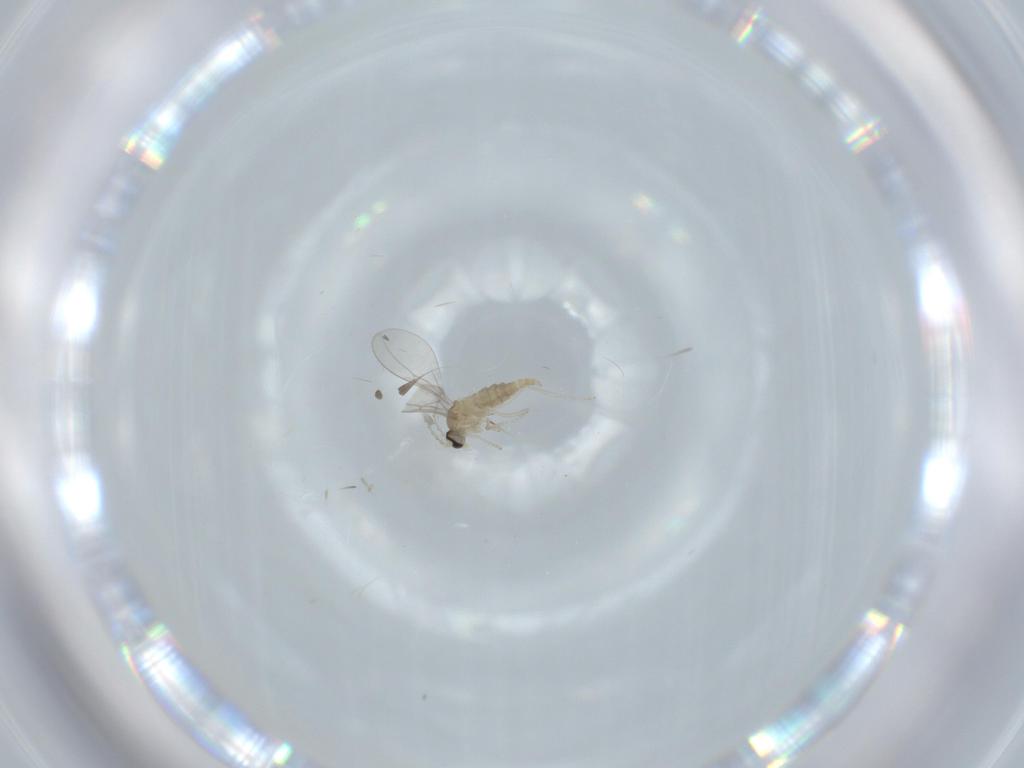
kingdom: Animalia
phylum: Arthropoda
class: Insecta
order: Diptera
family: Cecidomyiidae
